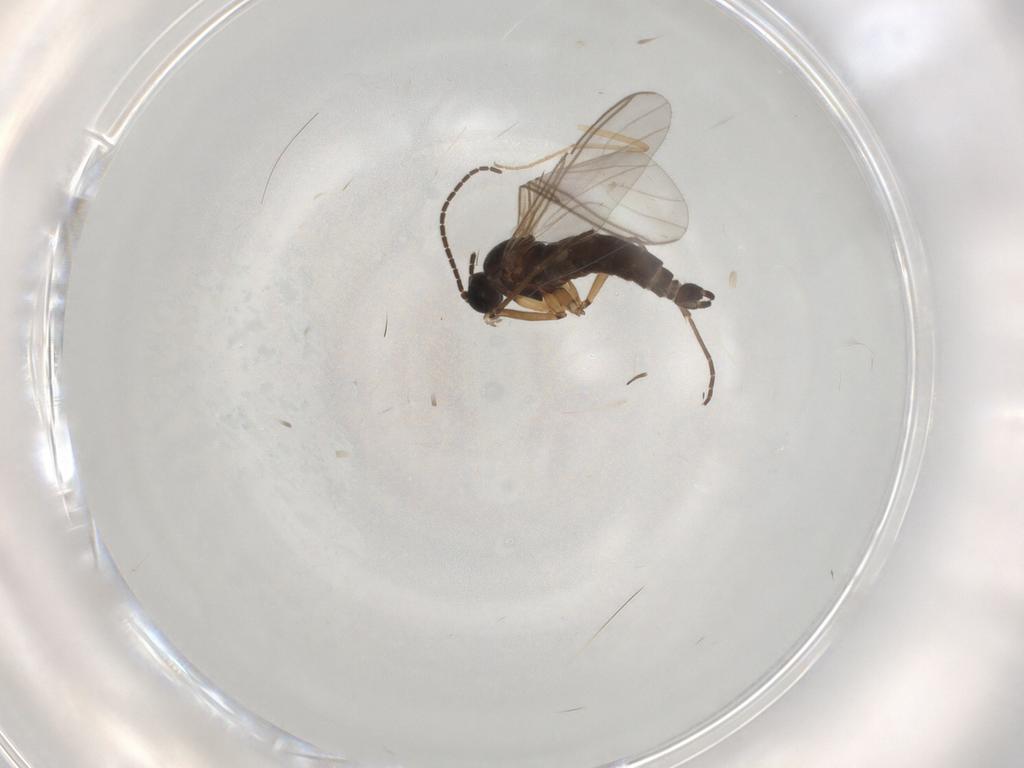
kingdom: Animalia
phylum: Arthropoda
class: Insecta
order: Diptera
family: Sciaridae
